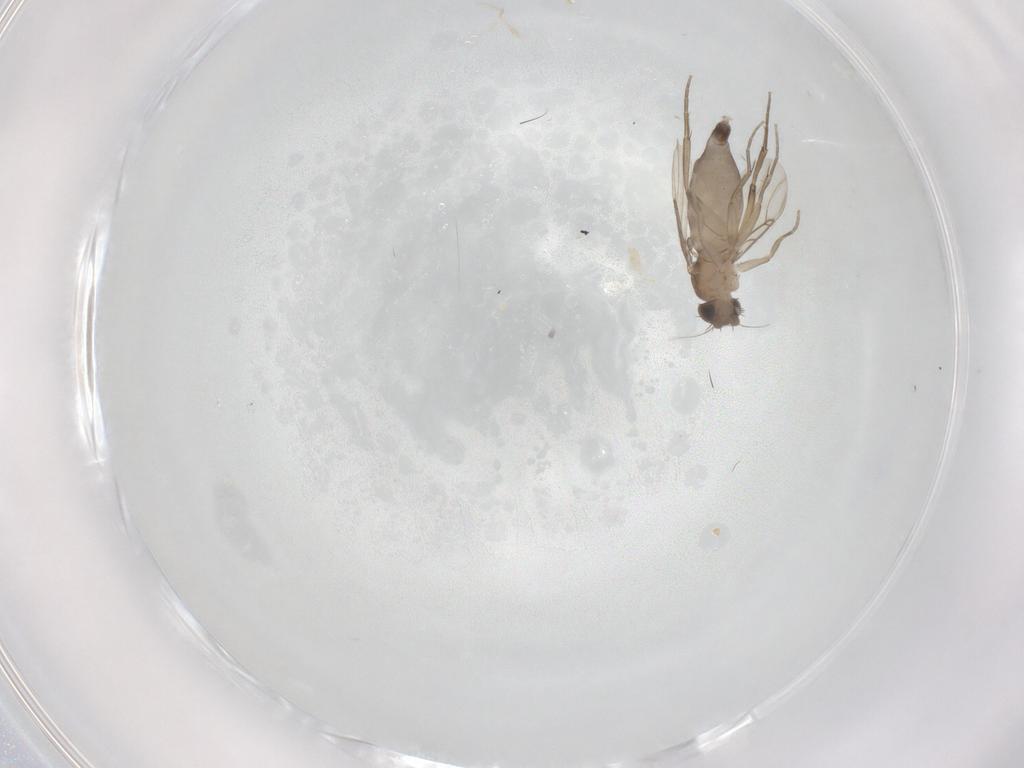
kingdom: Animalia
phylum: Arthropoda
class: Insecta
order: Diptera
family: Phoridae
